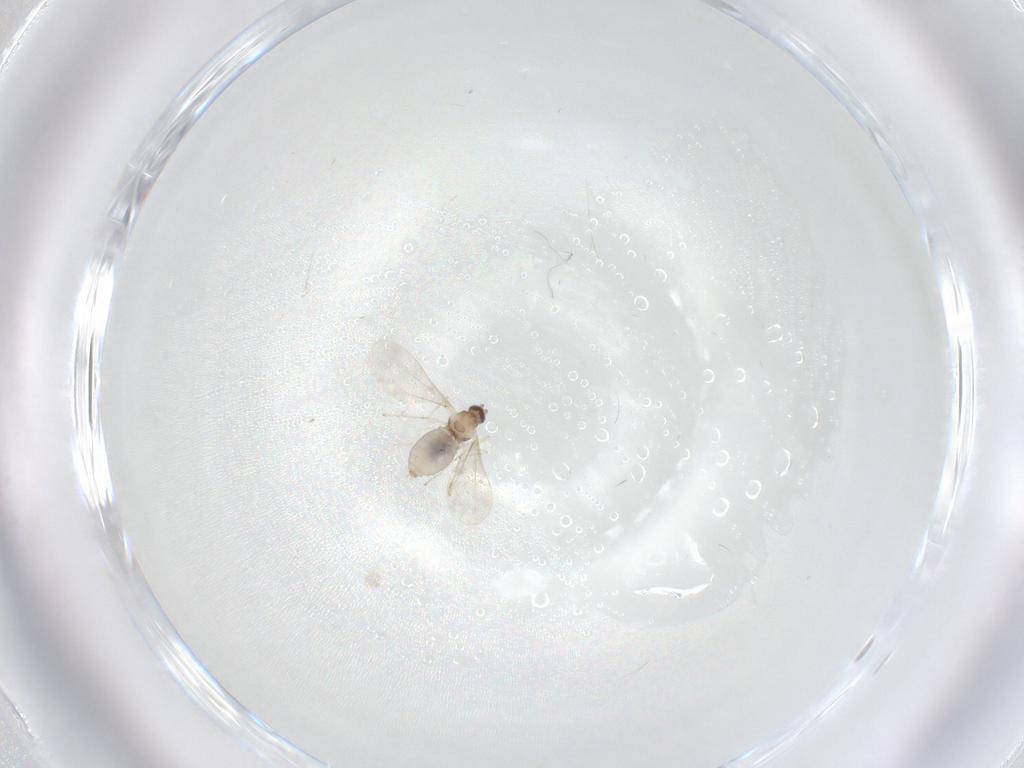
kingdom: Animalia
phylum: Arthropoda
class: Insecta
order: Diptera
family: Cecidomyiidae
